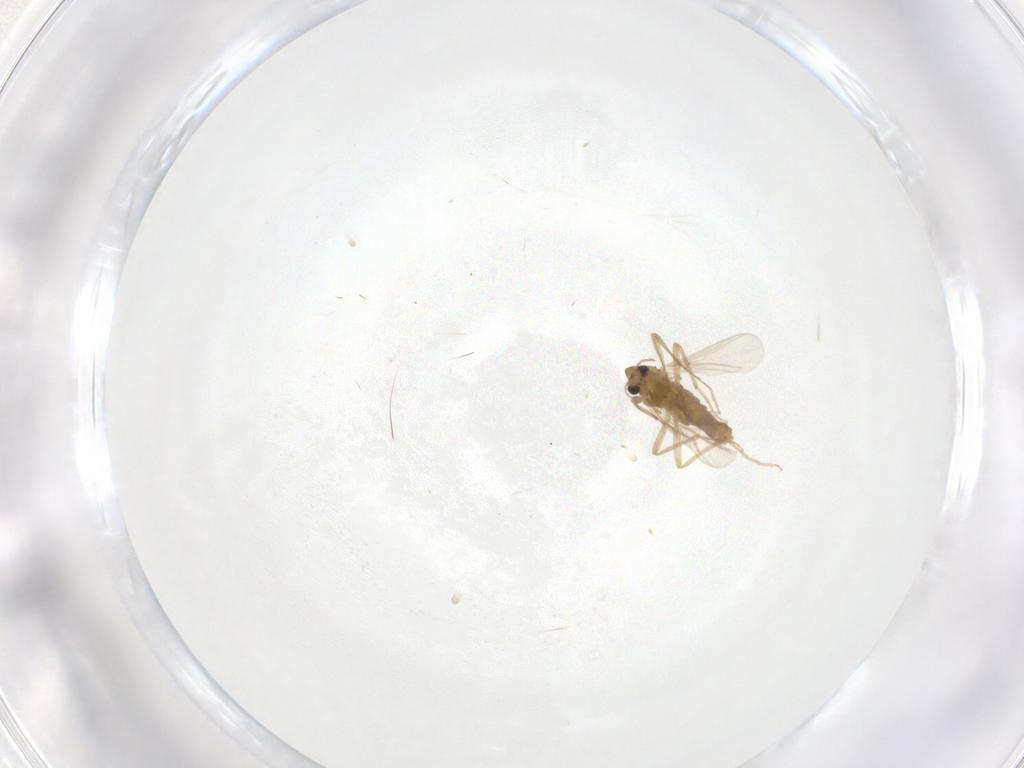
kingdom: Animalia
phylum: Arthropoda
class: Insecta
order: Diptera
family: Chironomidae
